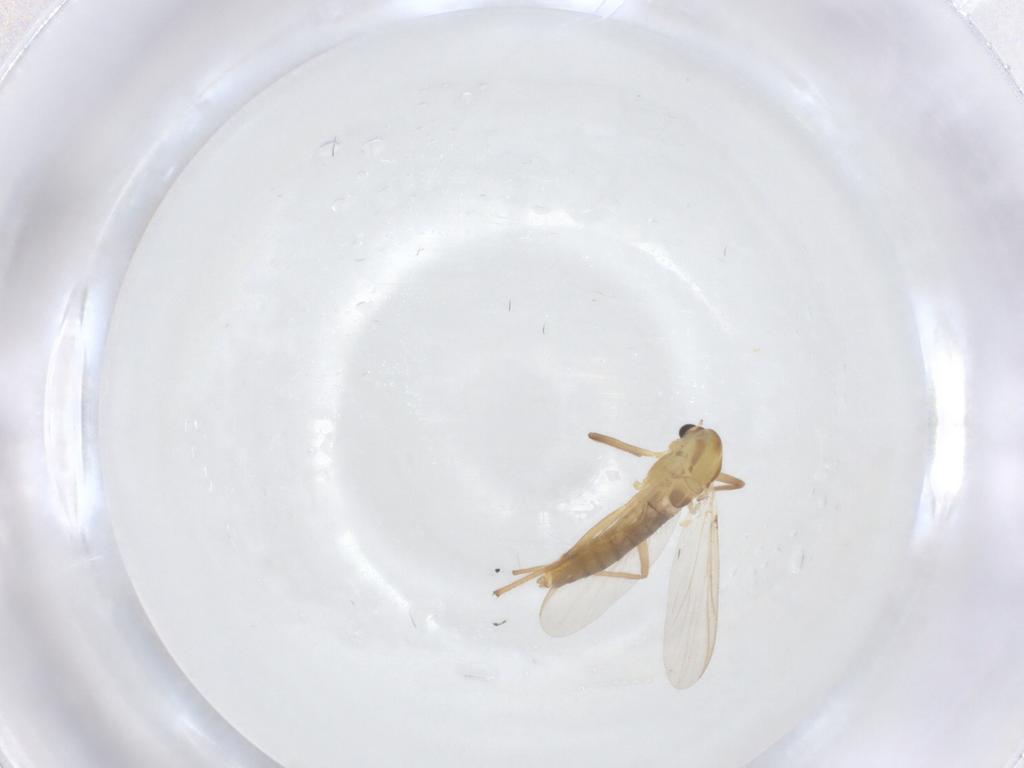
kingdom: Animalia
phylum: Arthropoda
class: Insecta
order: Diptera
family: Chironomidae
